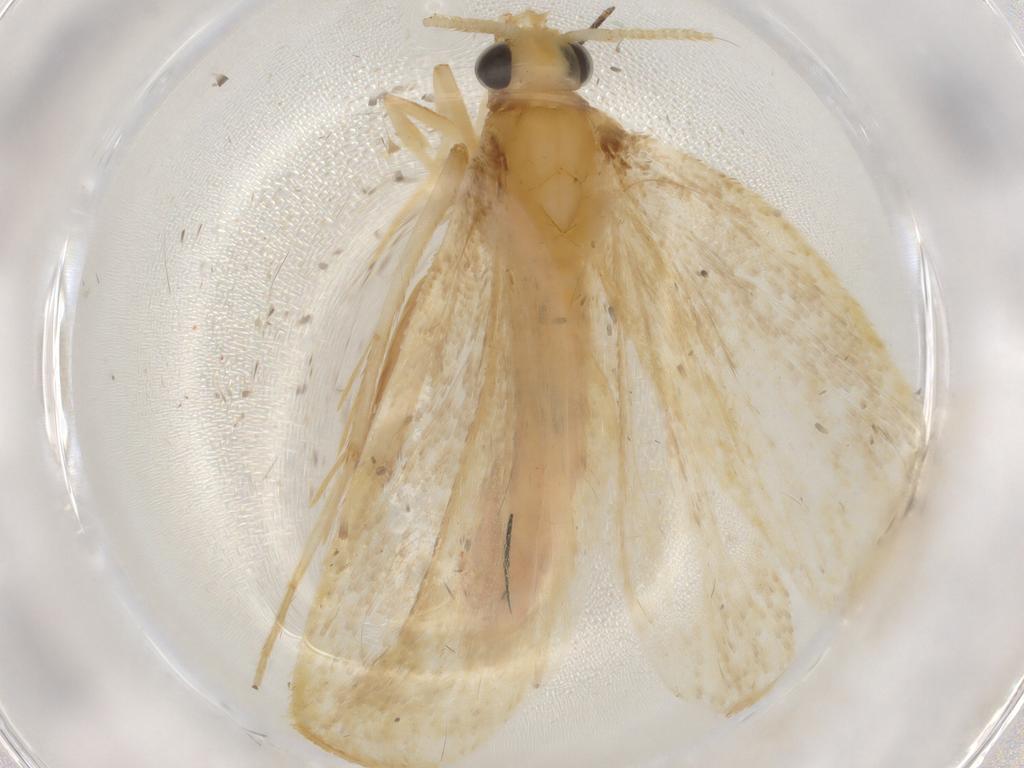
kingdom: Animalia
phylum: Arthropoda
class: Insecta
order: Lepidoptera
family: Lecithoceridae
